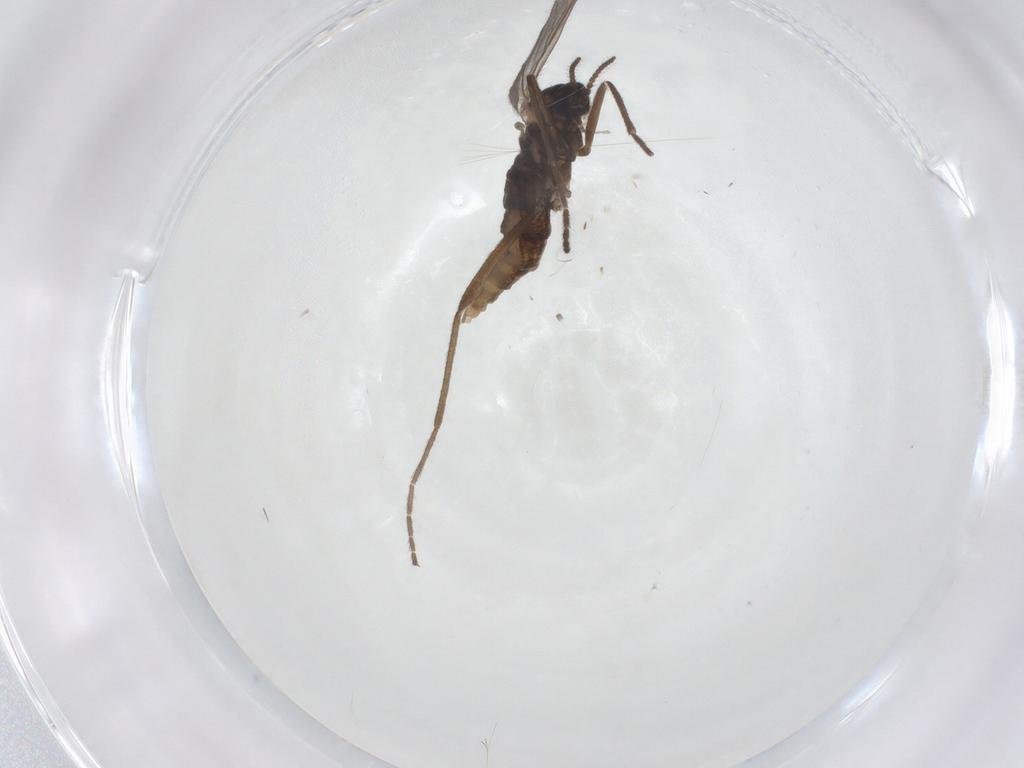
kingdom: Animalia
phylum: Arthropoda
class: Insecta
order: Diptera
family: Cecidomyiidae
